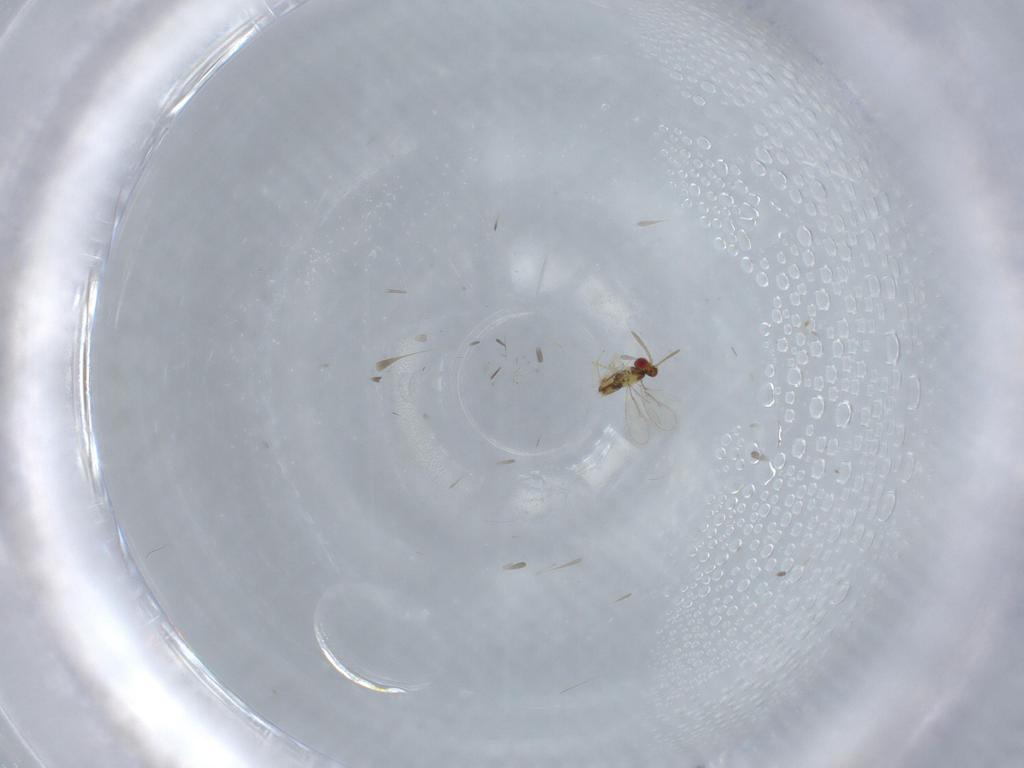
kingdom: Animalia
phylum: Arthropoda
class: Insecta
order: Hymenoptera
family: Aphelinidae
